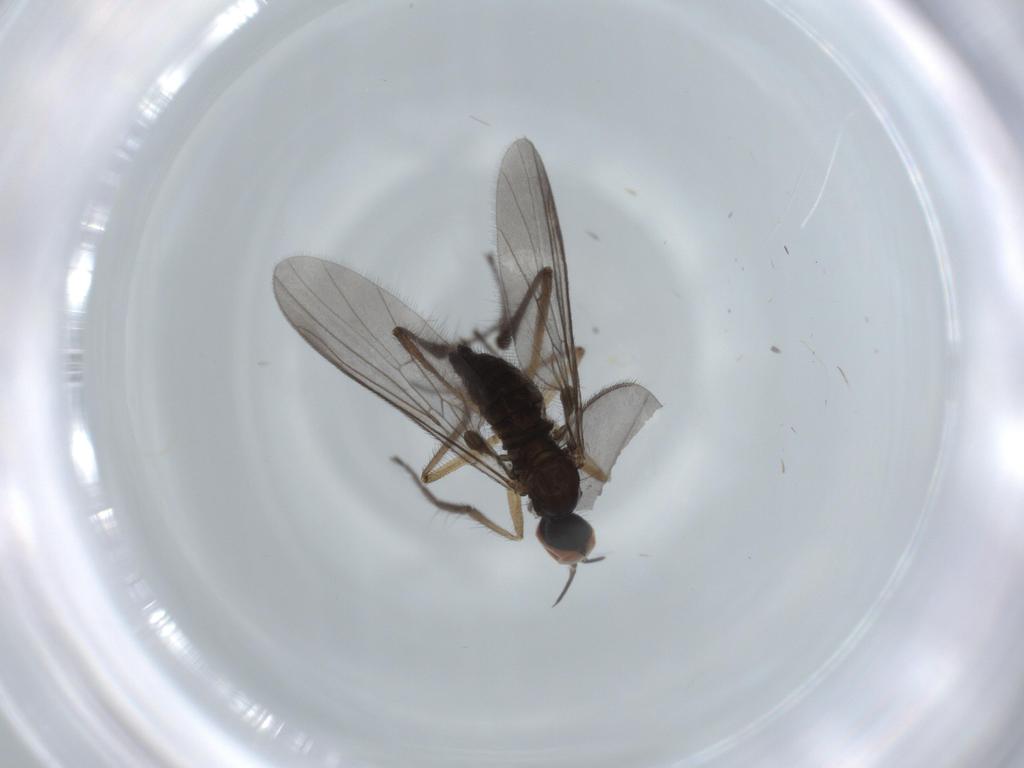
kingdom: Animalia
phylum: Arthropoda
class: Insecta
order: Diptera
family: Empididae
